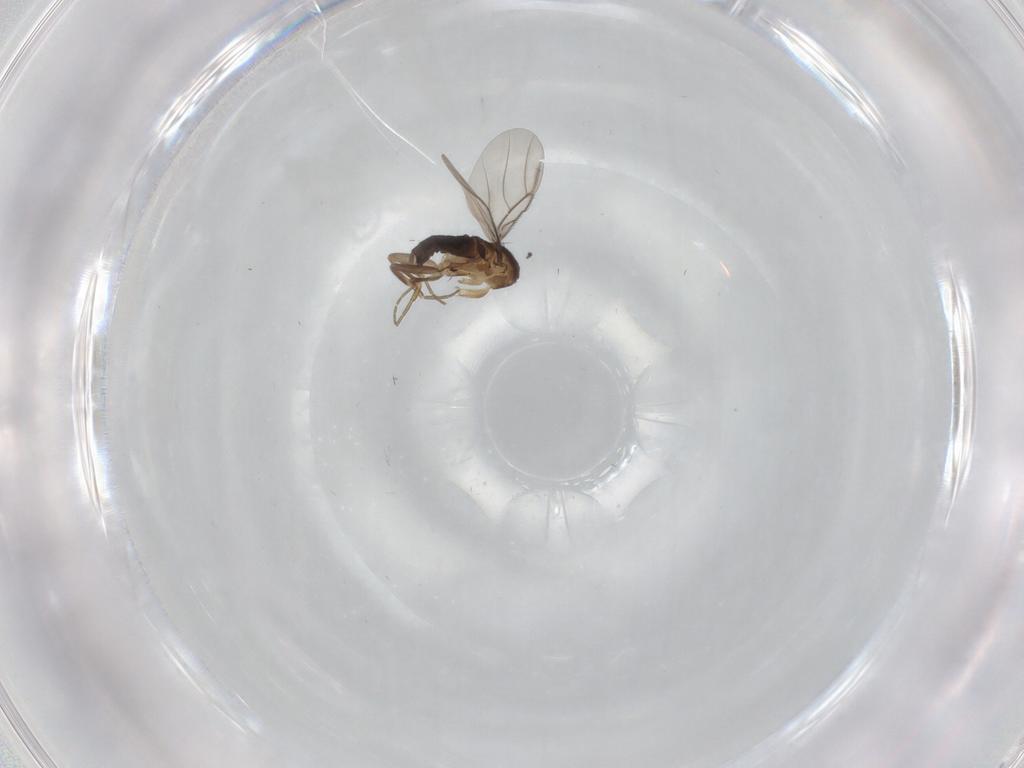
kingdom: Animalia
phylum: Arthropoda
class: Insecta
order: Diptera
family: Phoridae
